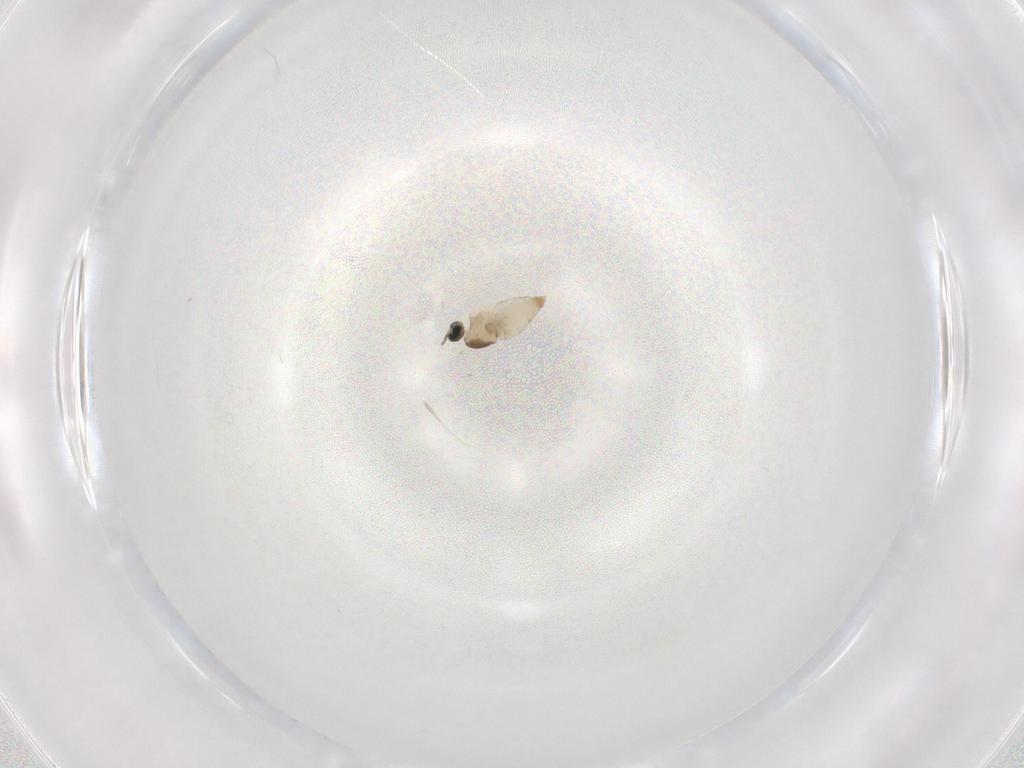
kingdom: Animalia
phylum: Arthropoda
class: Insecta
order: Diptera
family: Cecidomyiidae
